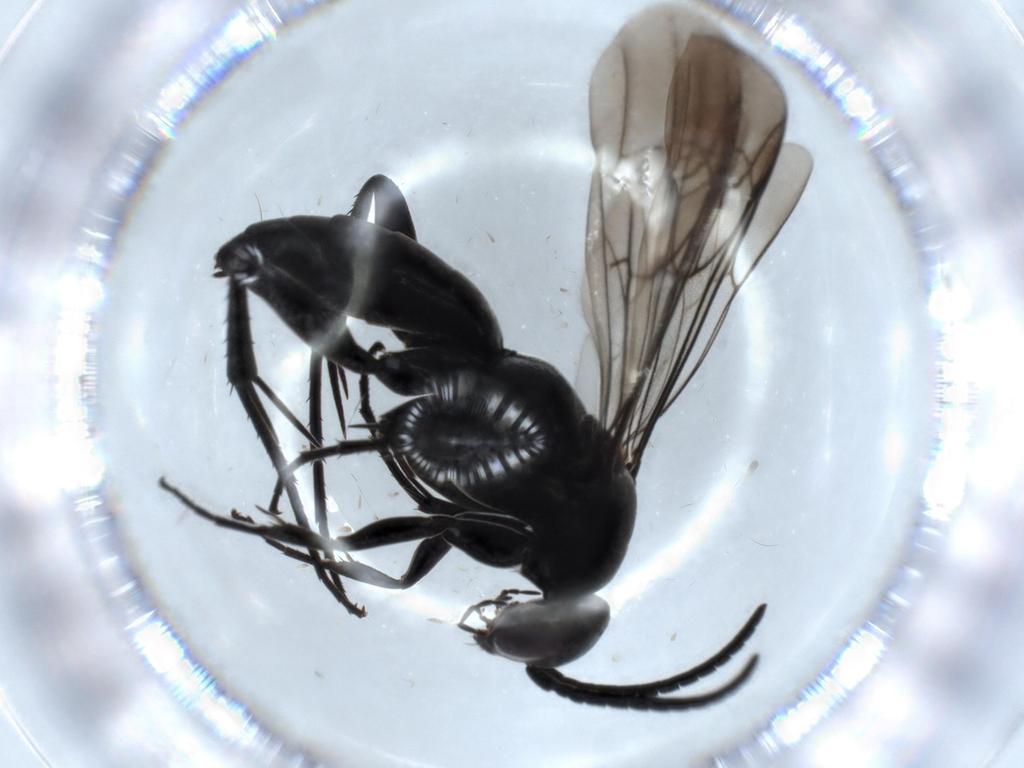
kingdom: Animalia
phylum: Arthropoda
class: Insecta
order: Hymenoptera
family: Pompilidae
